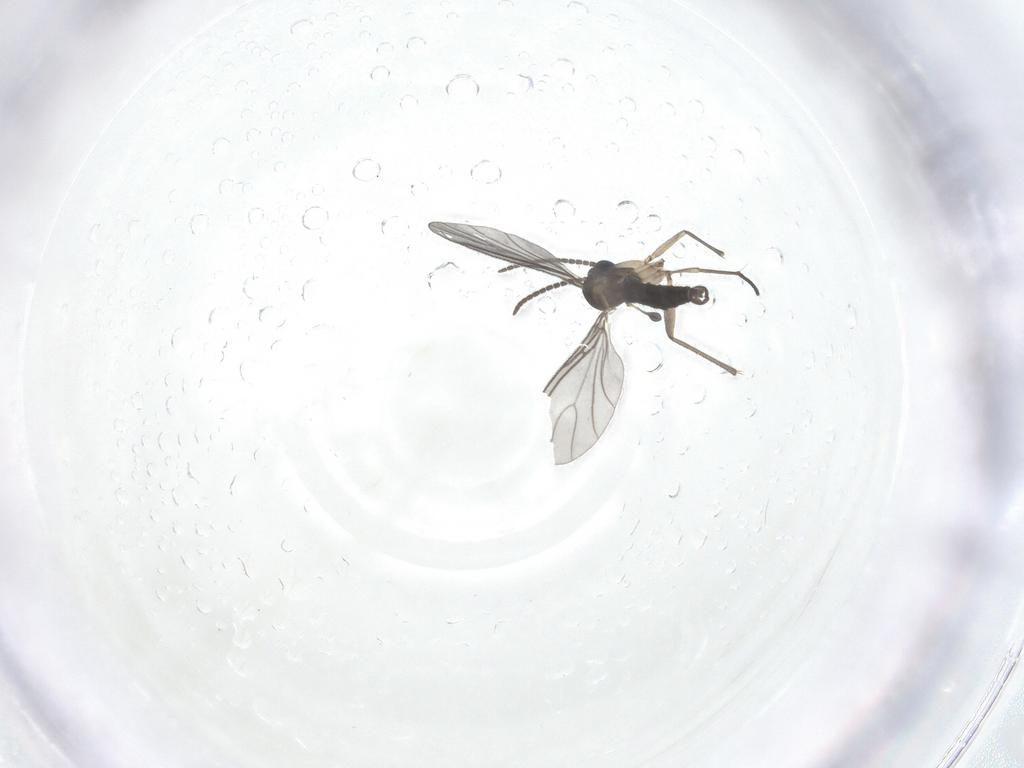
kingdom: Animalia
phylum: Arthropoda
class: Insecta
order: Diptera
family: Sciaridae
